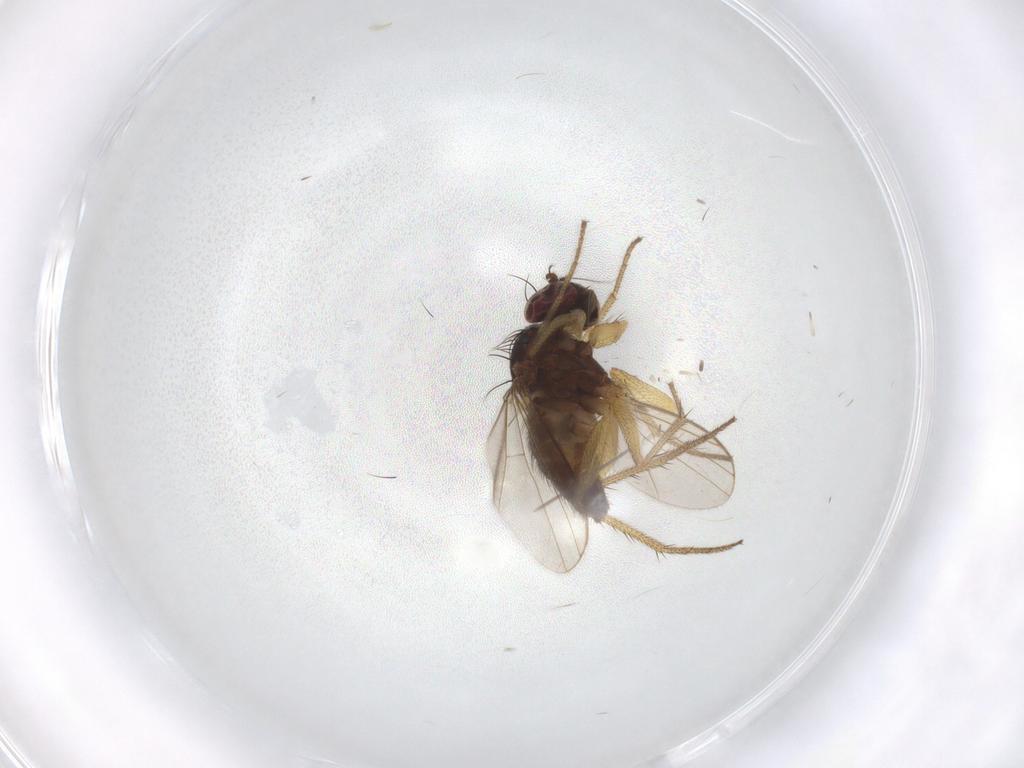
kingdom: Animalia
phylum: Arthropoda
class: Insecta
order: Diptera
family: Dolichopodidae
